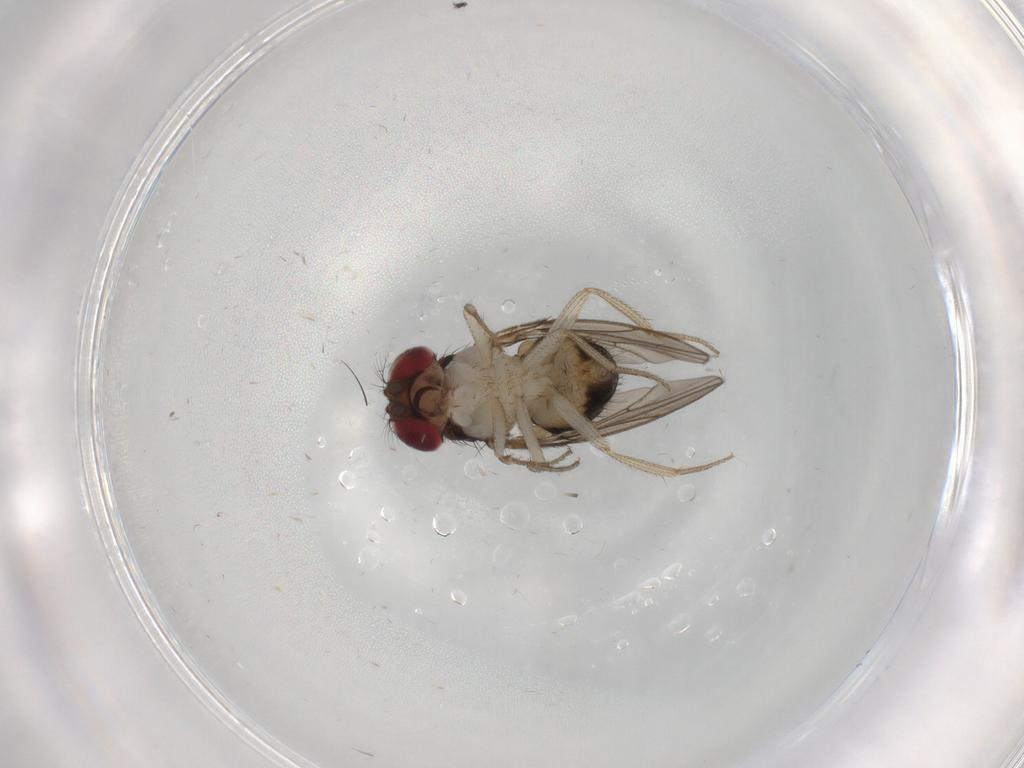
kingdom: Animalia
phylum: Arthropoda
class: Insecta
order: Diptera
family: Drosophilidae
